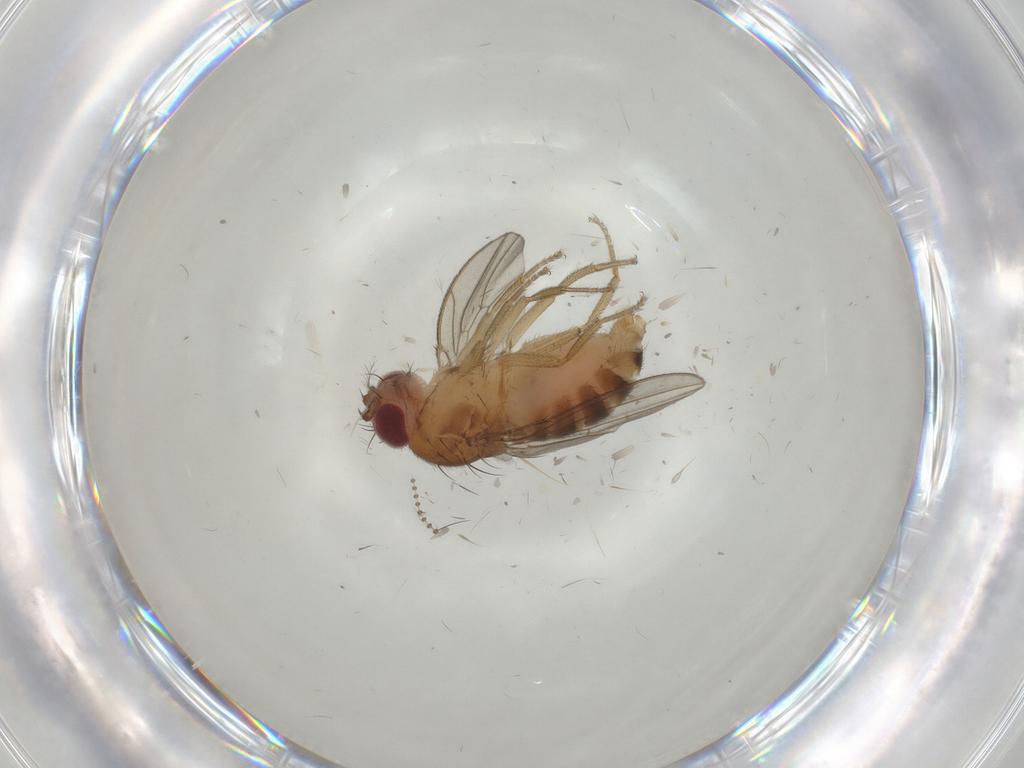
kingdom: Animalia
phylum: Arthropoda
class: Insecta
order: Diptera
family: Drosophilidae
